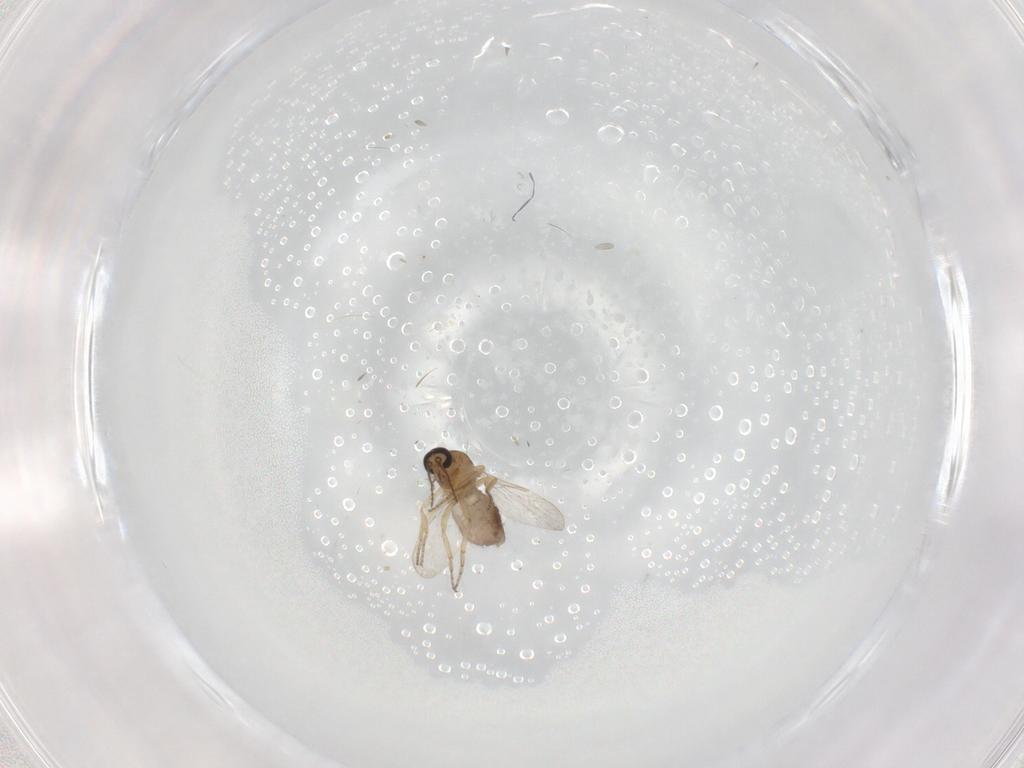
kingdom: Animalia
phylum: Arthropoda
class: Insecta
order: Diptera
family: Ceratopogonidae
